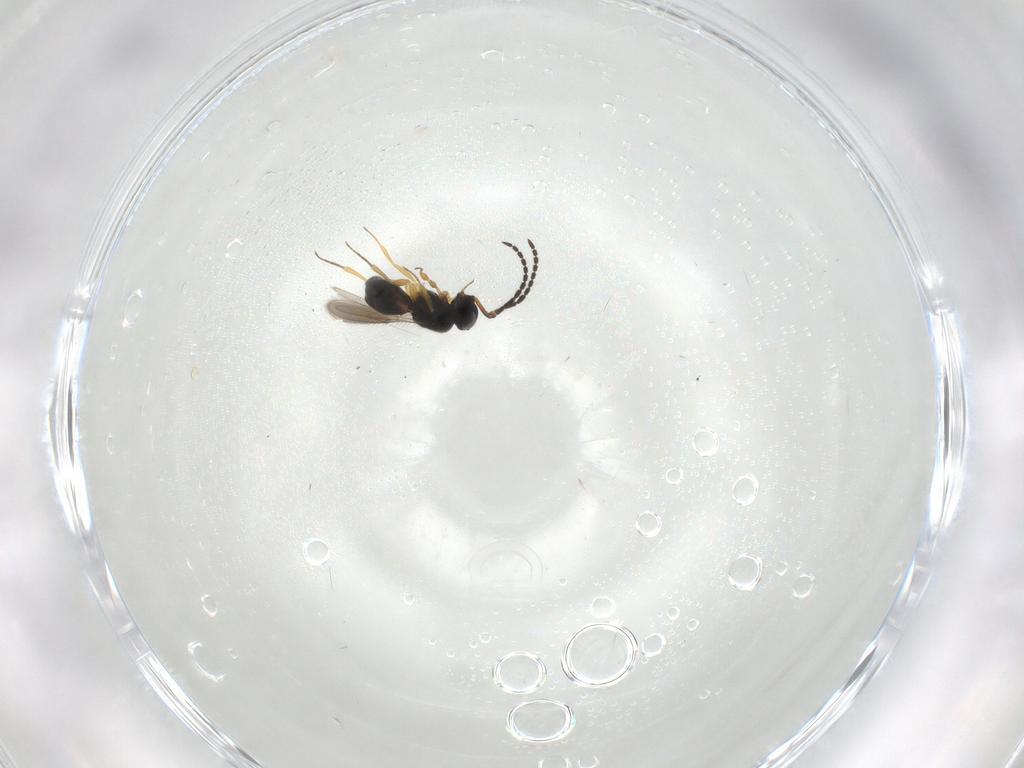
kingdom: Animalia
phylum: Arthropoda
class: Insecta
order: Hymenoptera
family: Scelionidae
